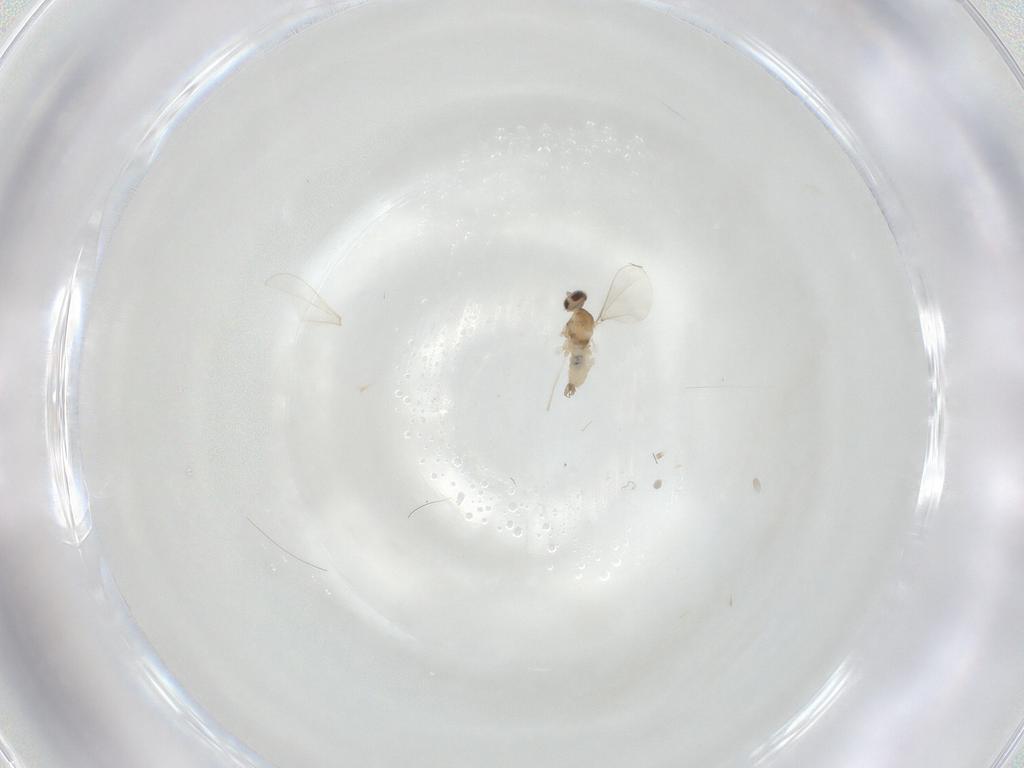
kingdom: Animalia
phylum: Arthropoda
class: Insecta
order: Diptera
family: Cecidomyiidae
